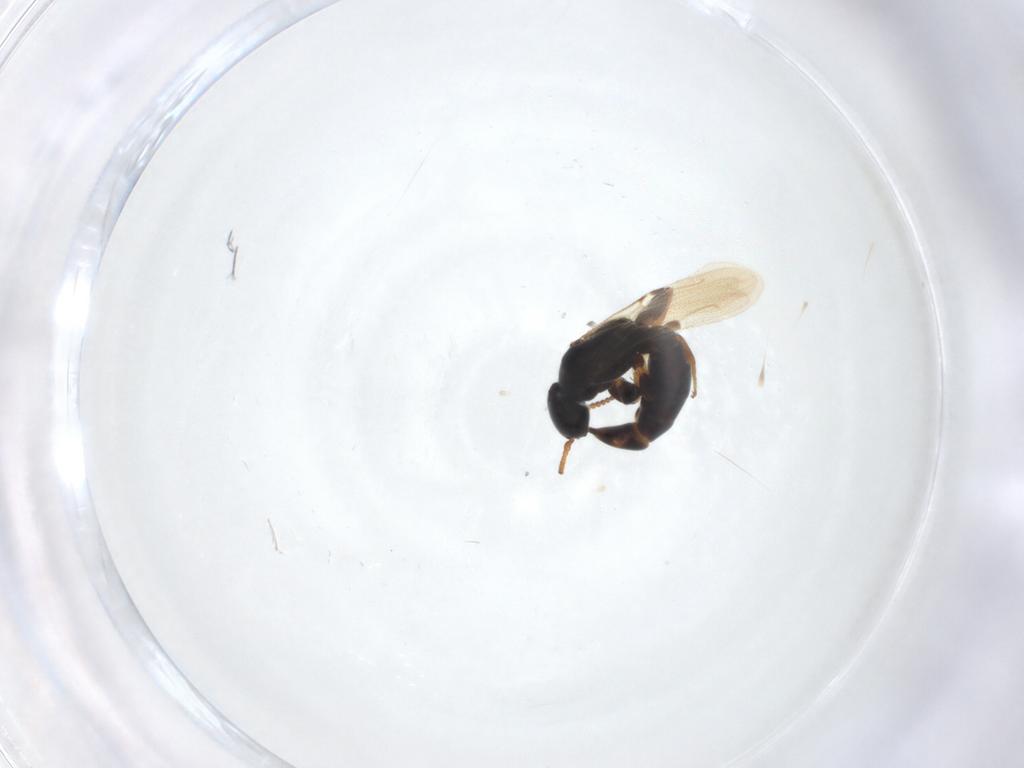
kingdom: Animalia
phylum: Arthropoda
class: Insecta
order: Hymenoptera
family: Bethylidae
